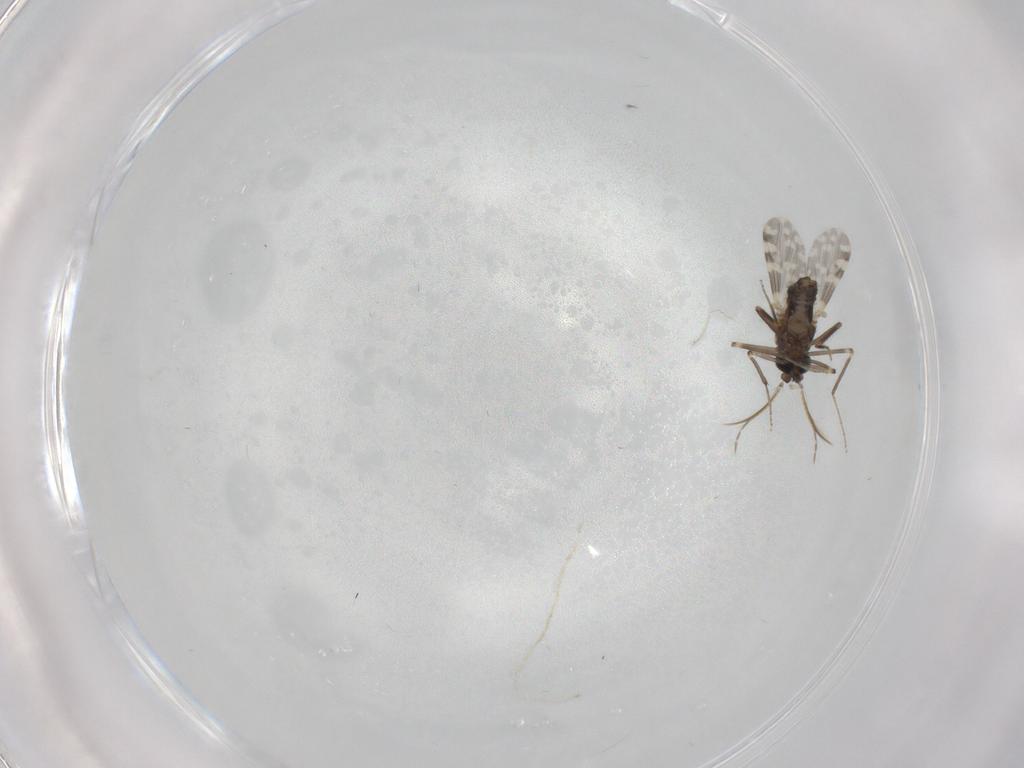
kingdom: Animalia
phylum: Arthropoda
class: Insecta
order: Diptera
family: Ceratopogonidae
